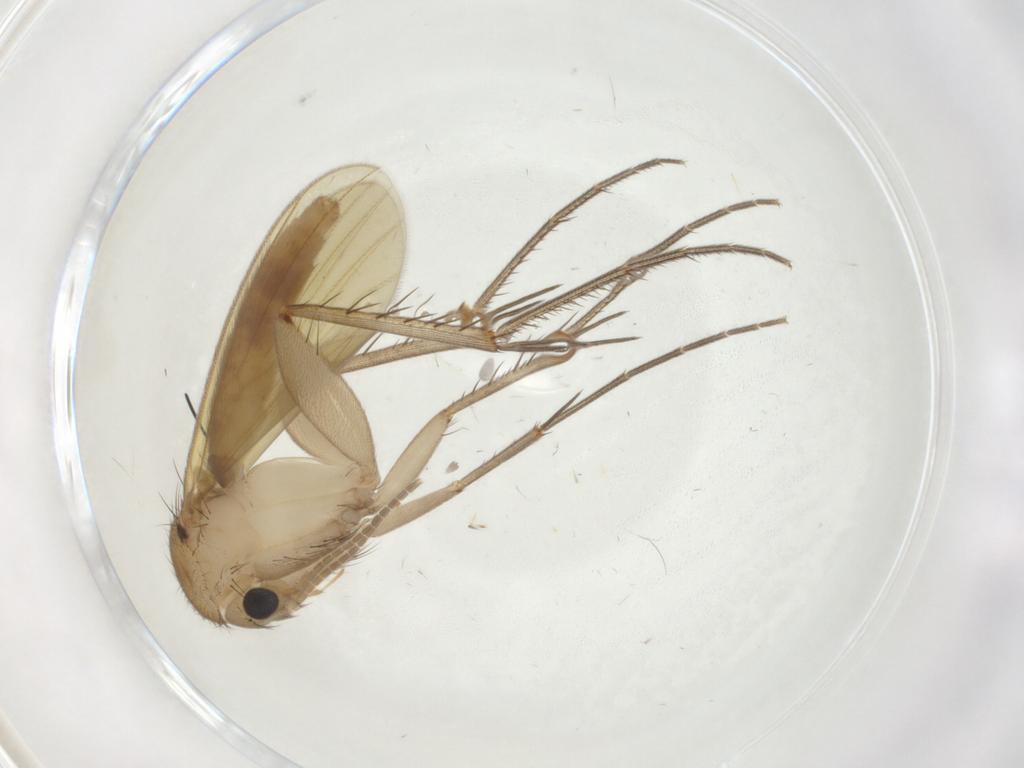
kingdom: Animalia
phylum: Arthropoda
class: Insecta
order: Diptera
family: Mycetophilidae
